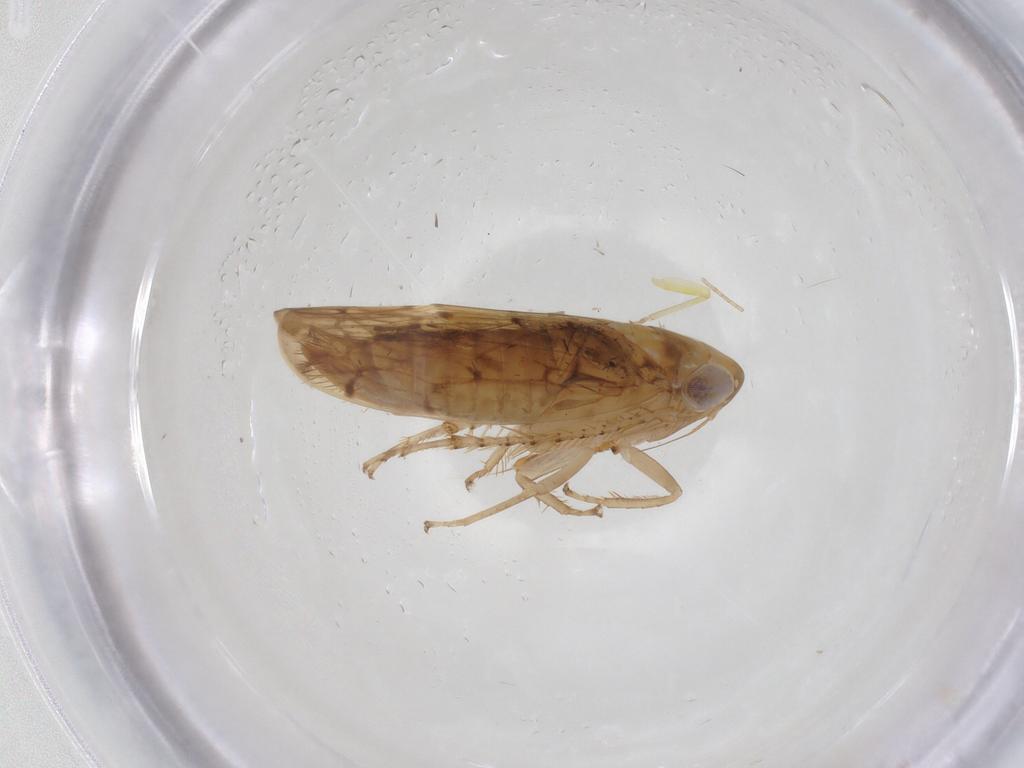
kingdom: Animalia
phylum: Arthropoda
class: Insecta
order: Hemiptera
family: Cicadellidae
